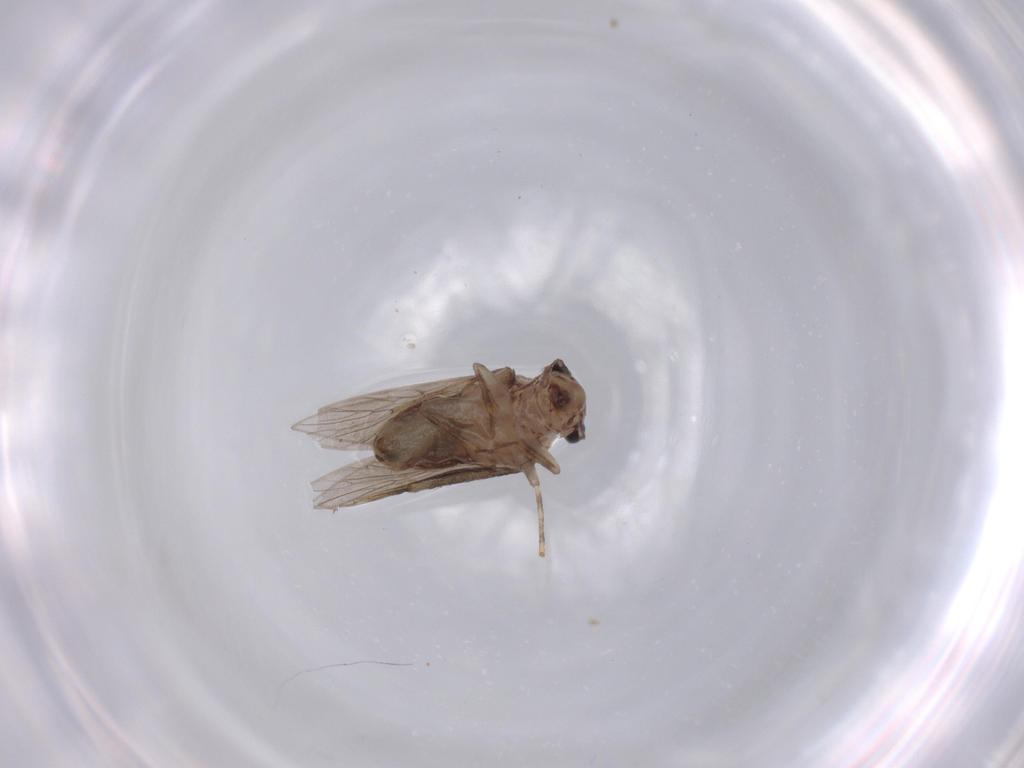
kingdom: Animalia
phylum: Arthropoda
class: Insecta
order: Psocodea
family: Lepidopsocidae
